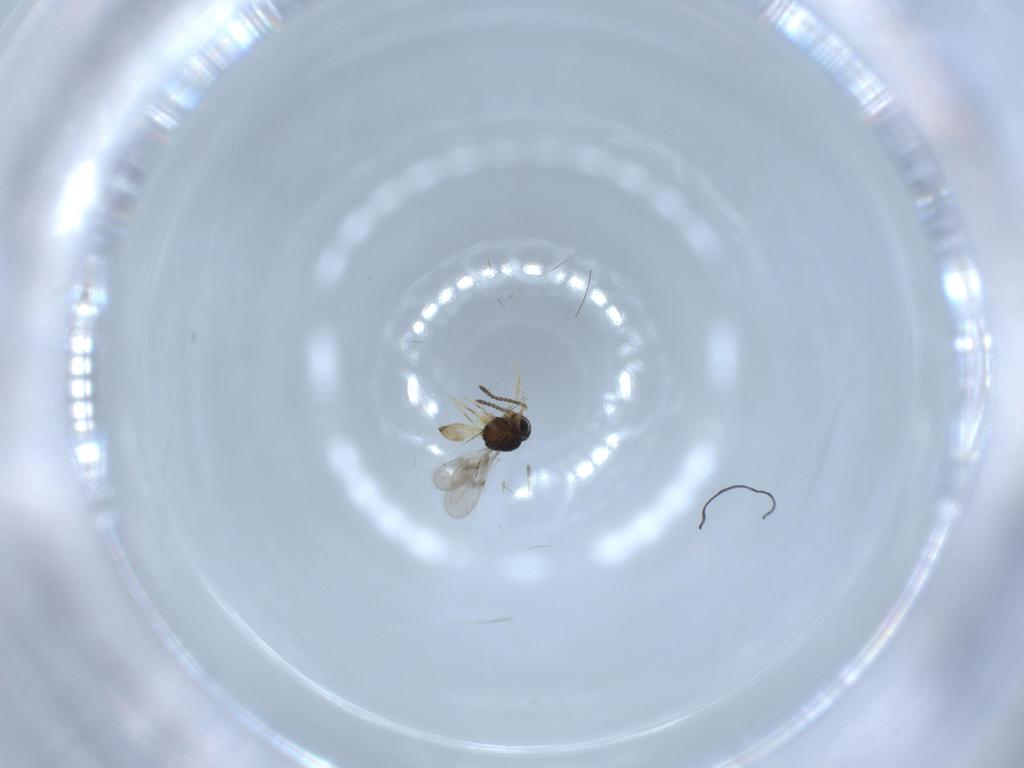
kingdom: Animalia
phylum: Arthropoda
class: Insecta
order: Hymenoptera
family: Scelionidae
